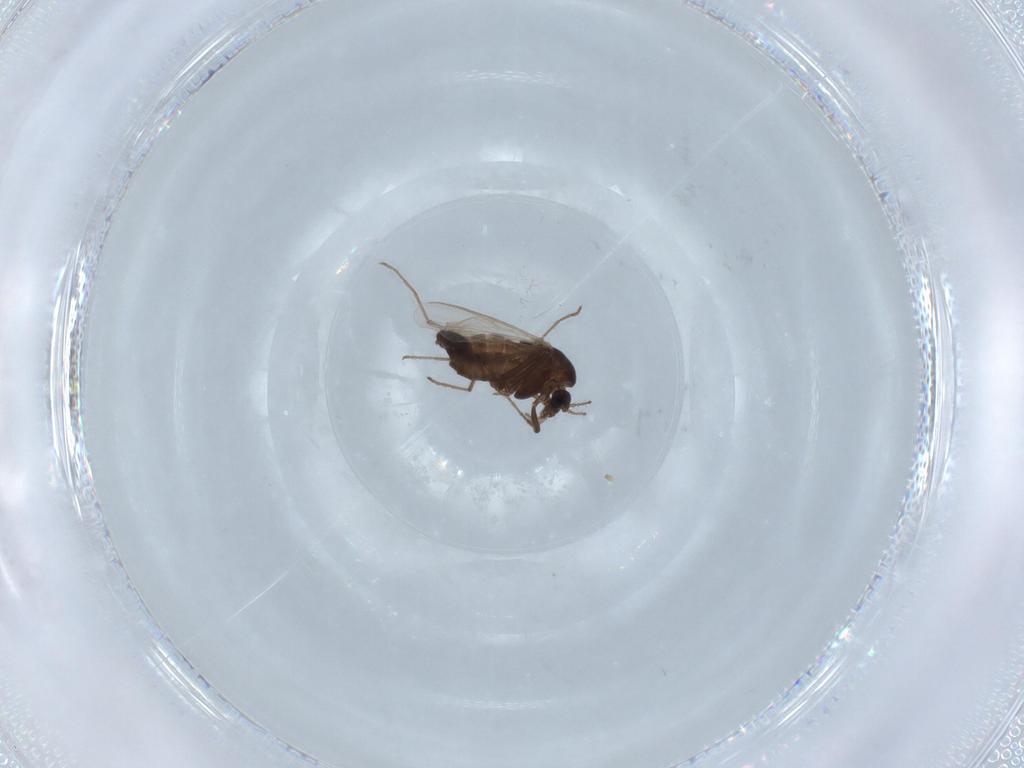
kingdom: Animalia
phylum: Arthropoda
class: Insecta
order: Diptera
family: Chironomidae
